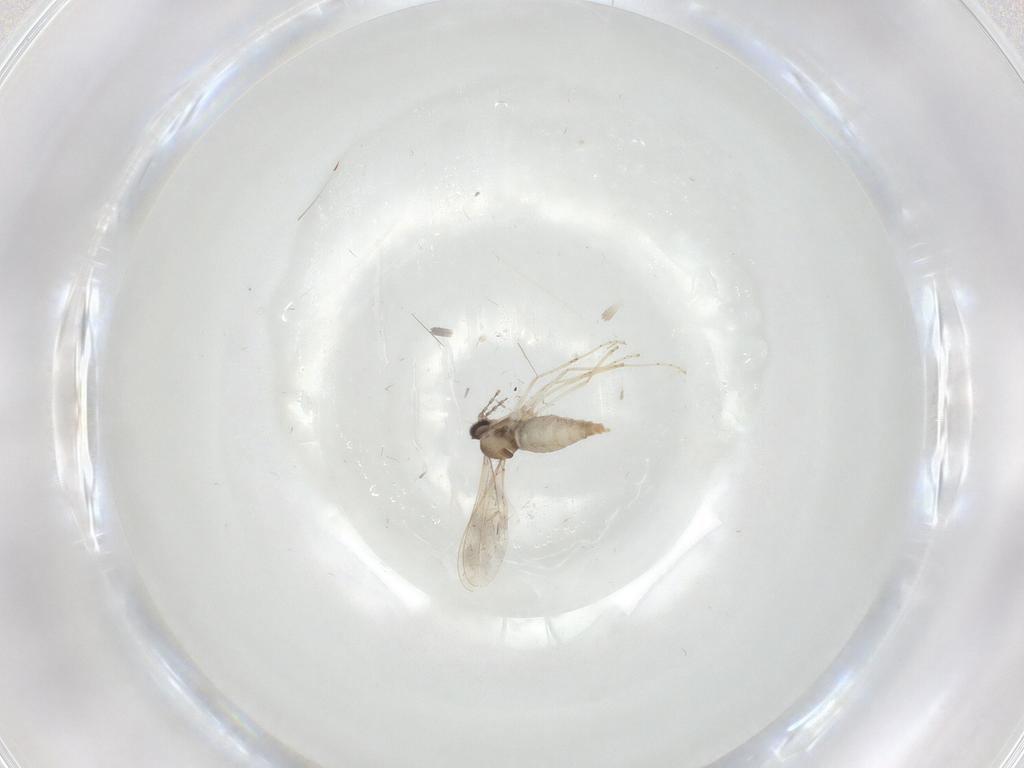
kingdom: Animalia
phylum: Arthropoda
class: Insecta
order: Diptera
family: Cecidomyiidae
